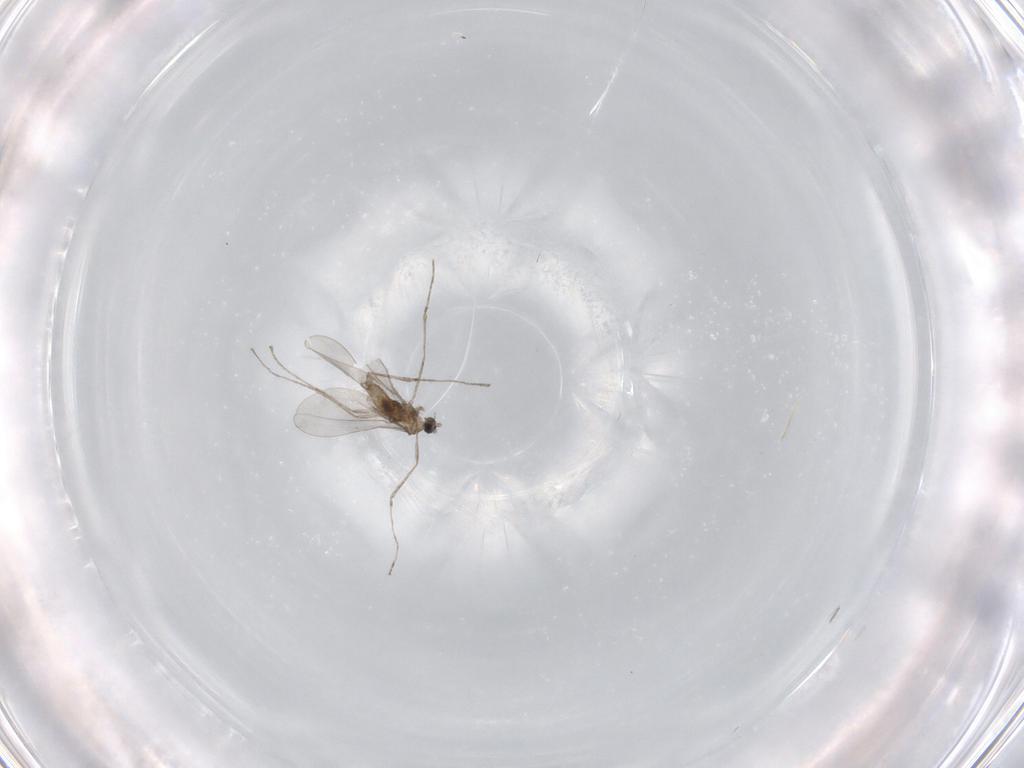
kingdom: Animalia
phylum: Arthropoda
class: Insecta
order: Diptera
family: Cecidomyiidae
